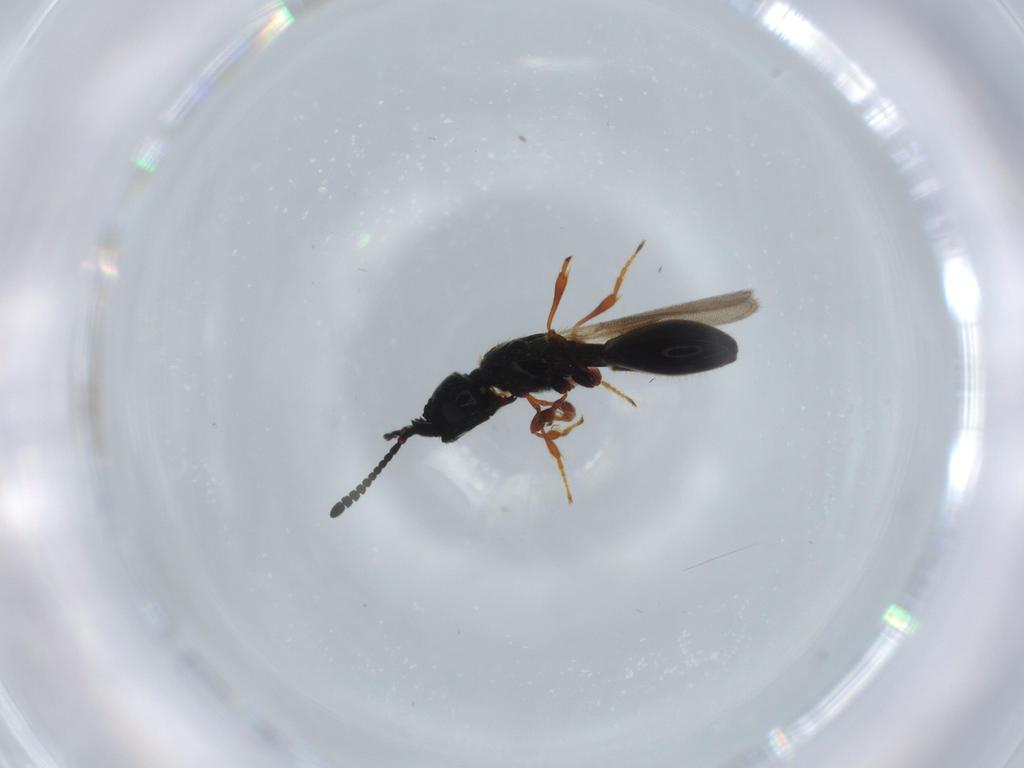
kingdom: Animalia
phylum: Arthropoda
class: Insecta
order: Hymenoptera
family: Diapriidae
